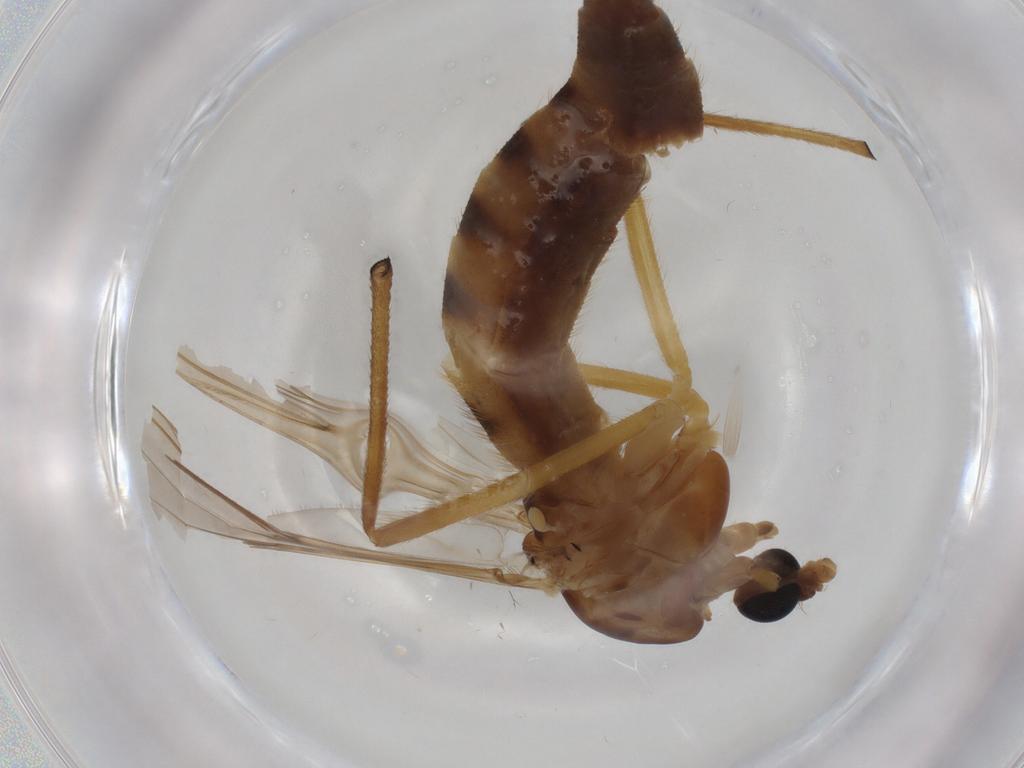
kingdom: Animalia
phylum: Arthropoda
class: Insecta
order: Diptera
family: Chironomidae
